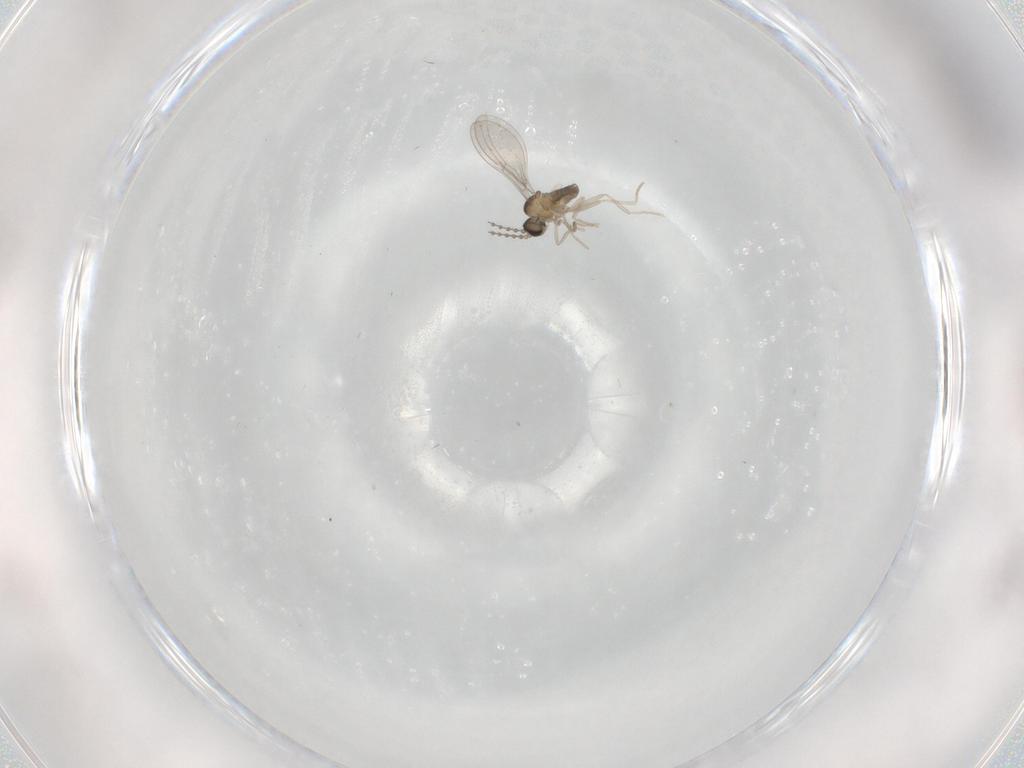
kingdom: Animalia
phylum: Arthropoda
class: Insecta
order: Diptera
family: Cecidomyiidae
